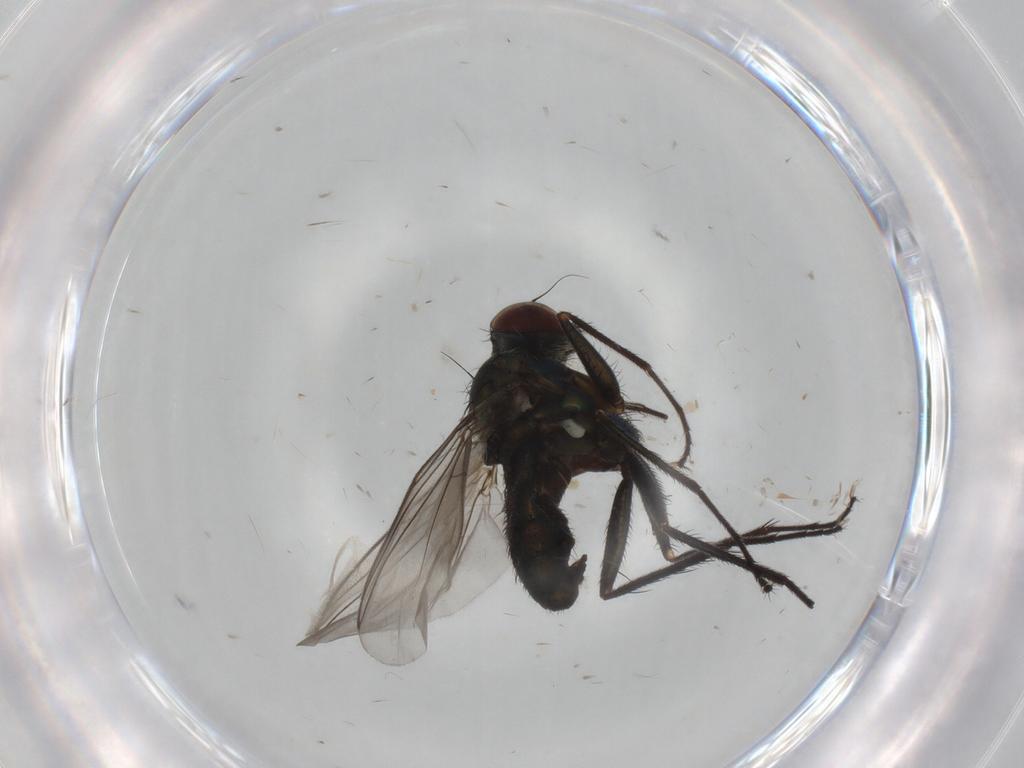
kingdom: Animalia
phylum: Arthropoda
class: Insecta
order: Diptera
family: Dolichopodidae
